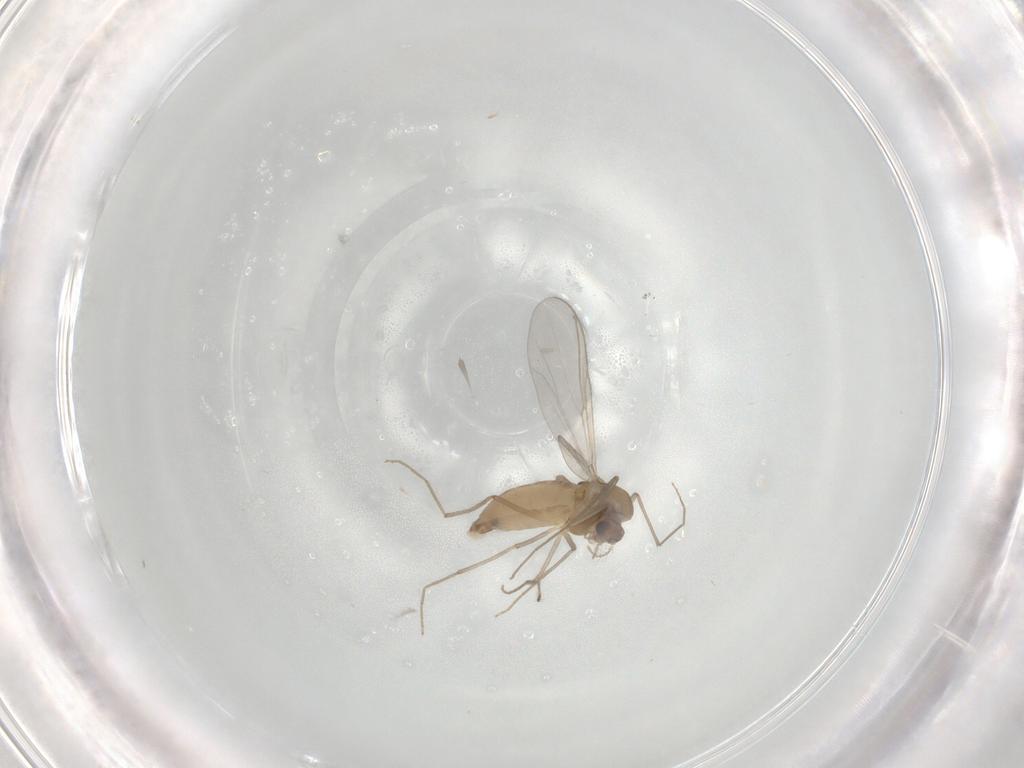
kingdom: Animalia
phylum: Arthropoda
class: Insecta
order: Diptera
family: Chironomidae
